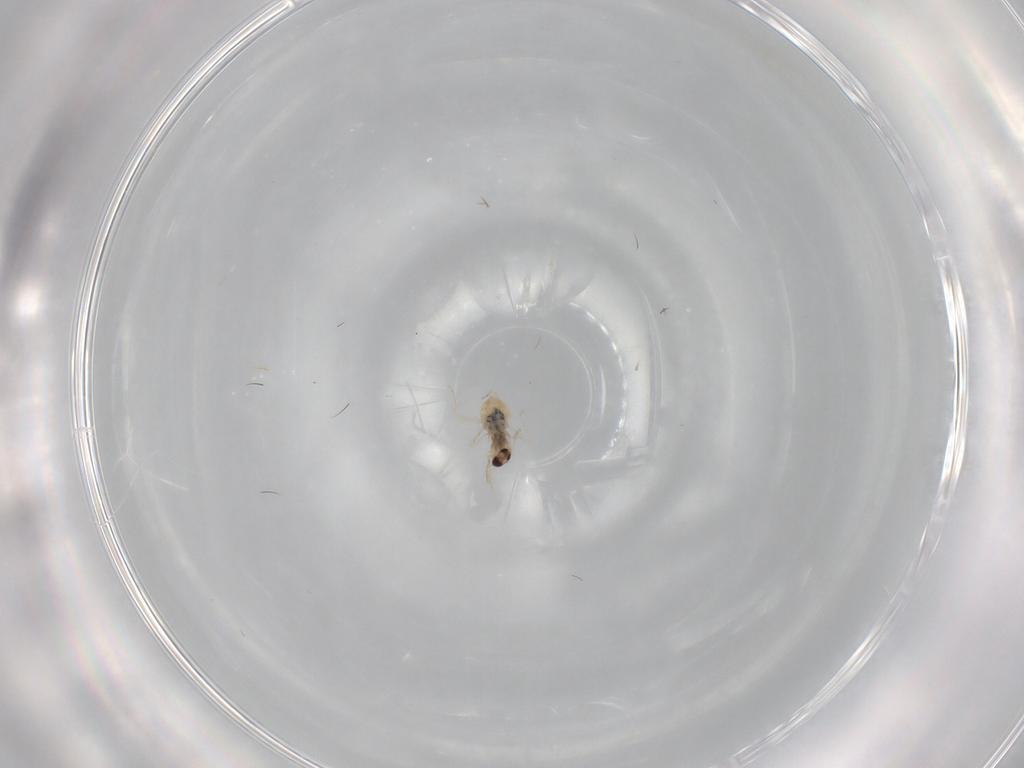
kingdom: Animalia
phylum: Arthropoda
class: Insecta
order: Diptera
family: Cecidomyiidae
